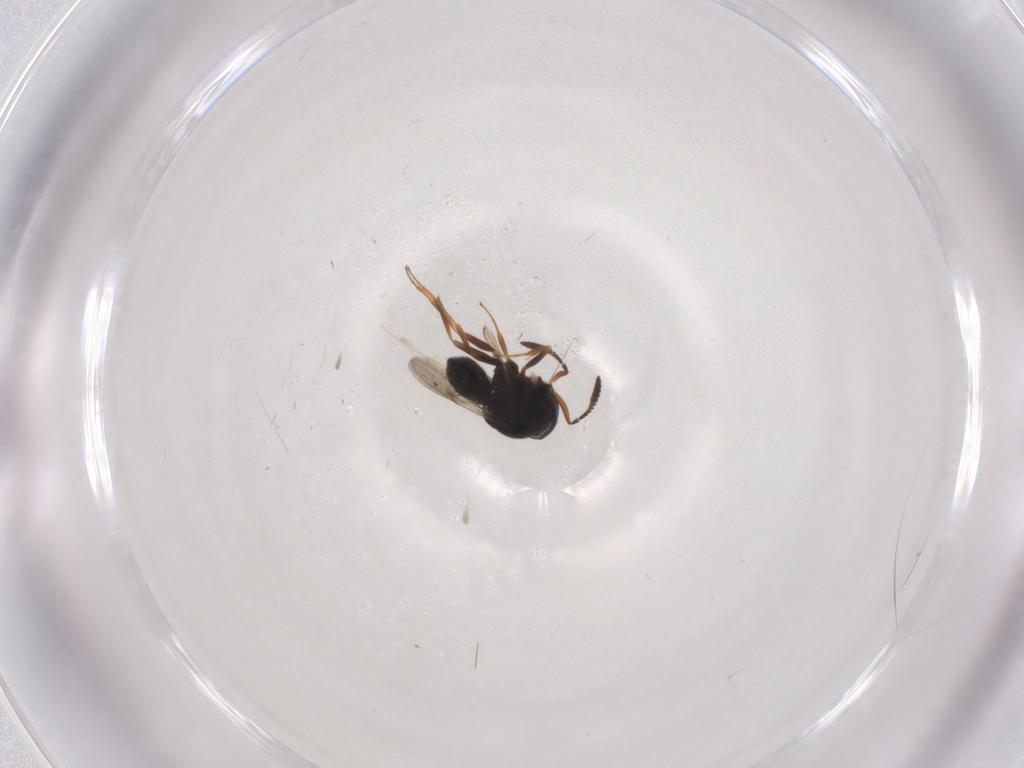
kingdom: Animalia
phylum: Arthropoda
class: Insecta
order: Hymenoptera
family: Scelionidae
